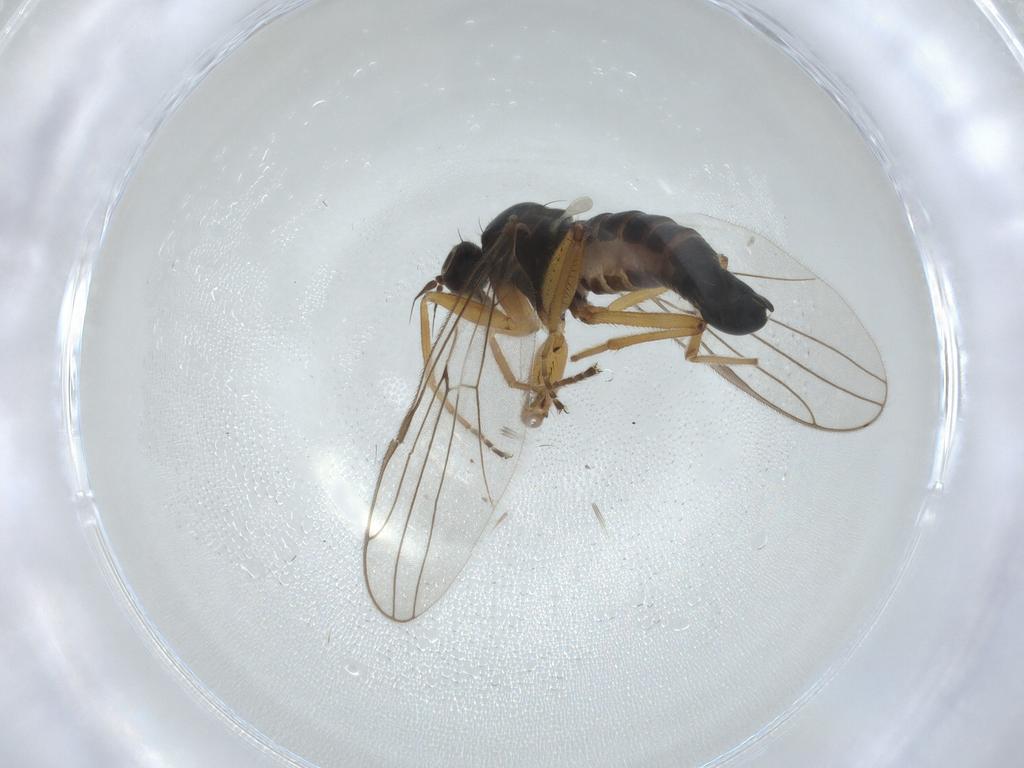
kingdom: Animalia
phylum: Arthropoda
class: Insecta
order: Diptera
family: Hybotidae
